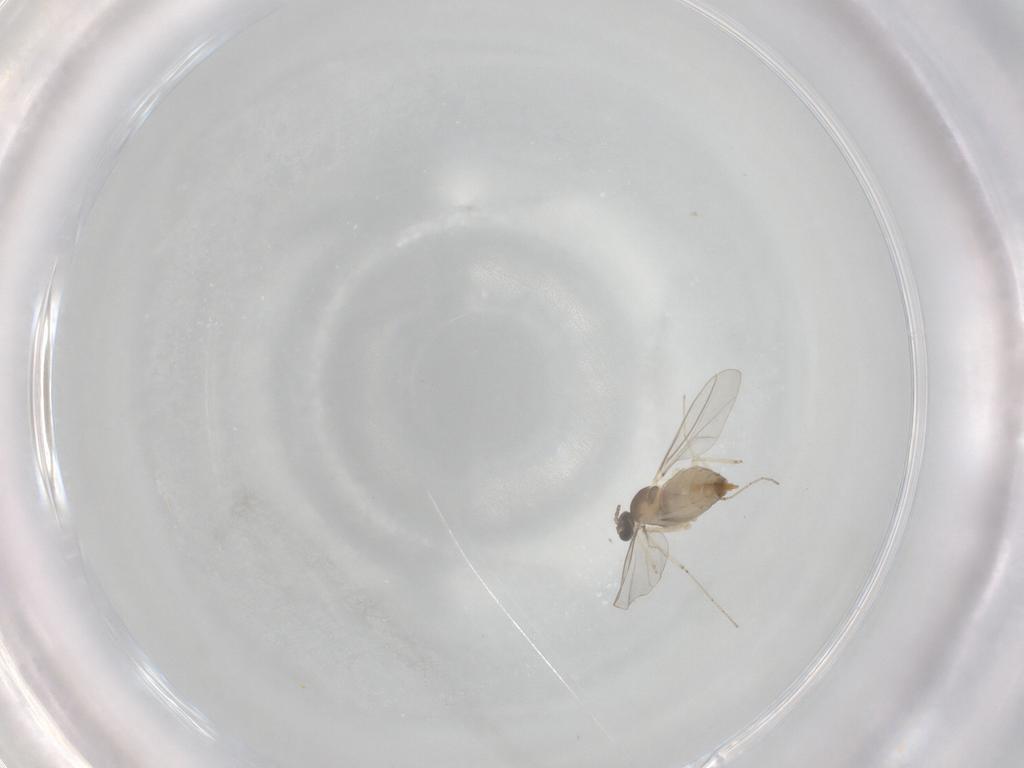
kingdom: Animalia
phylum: Arthropoda
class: Insecta
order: Diptera
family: Cecidomyiidae
